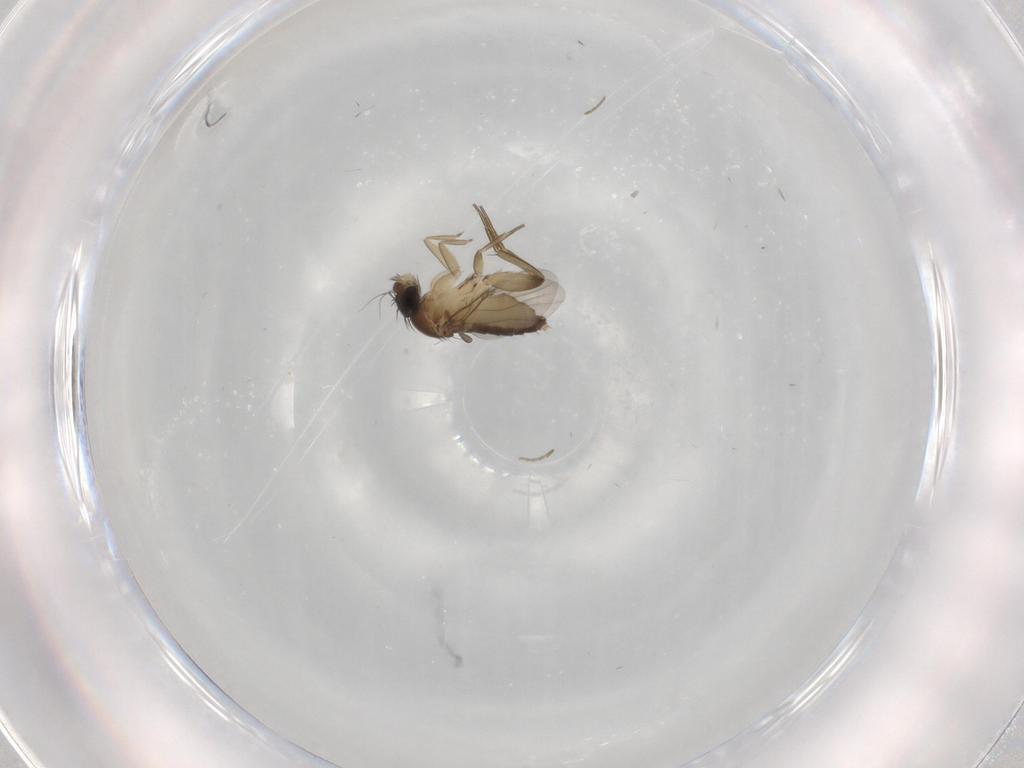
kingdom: Animalia
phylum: Arthropoda
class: Insecta
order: Diptera
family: Phoridae
